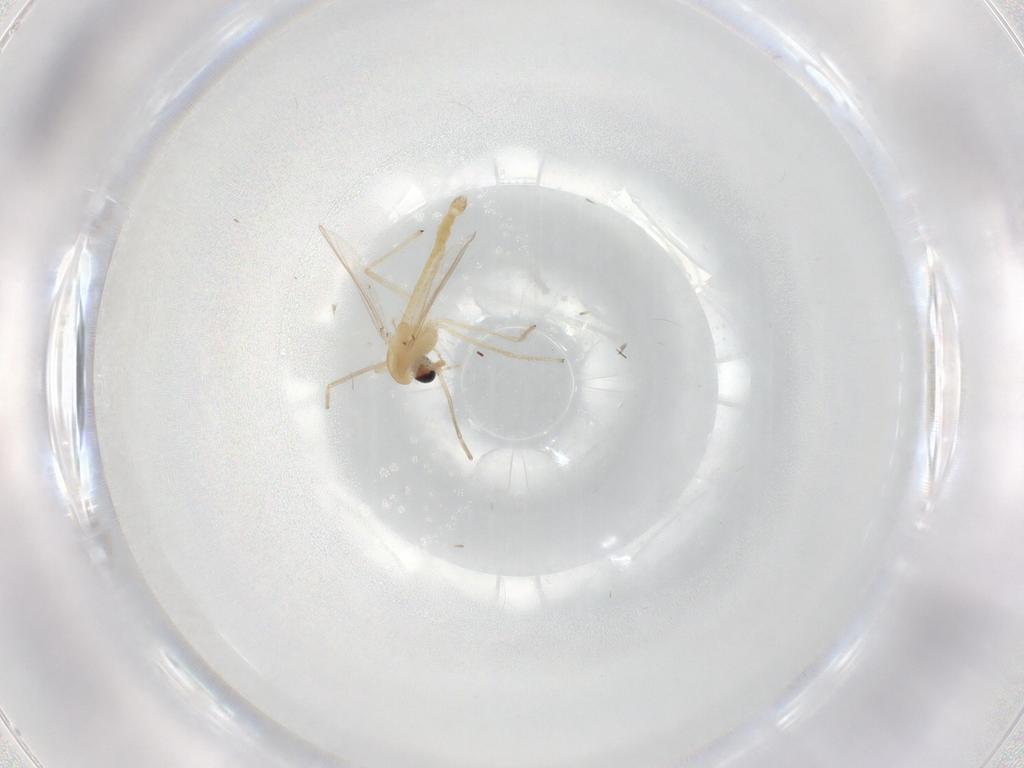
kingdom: Animalia
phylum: Arthropoda
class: Insecta
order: Diptera
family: Chironomidae
